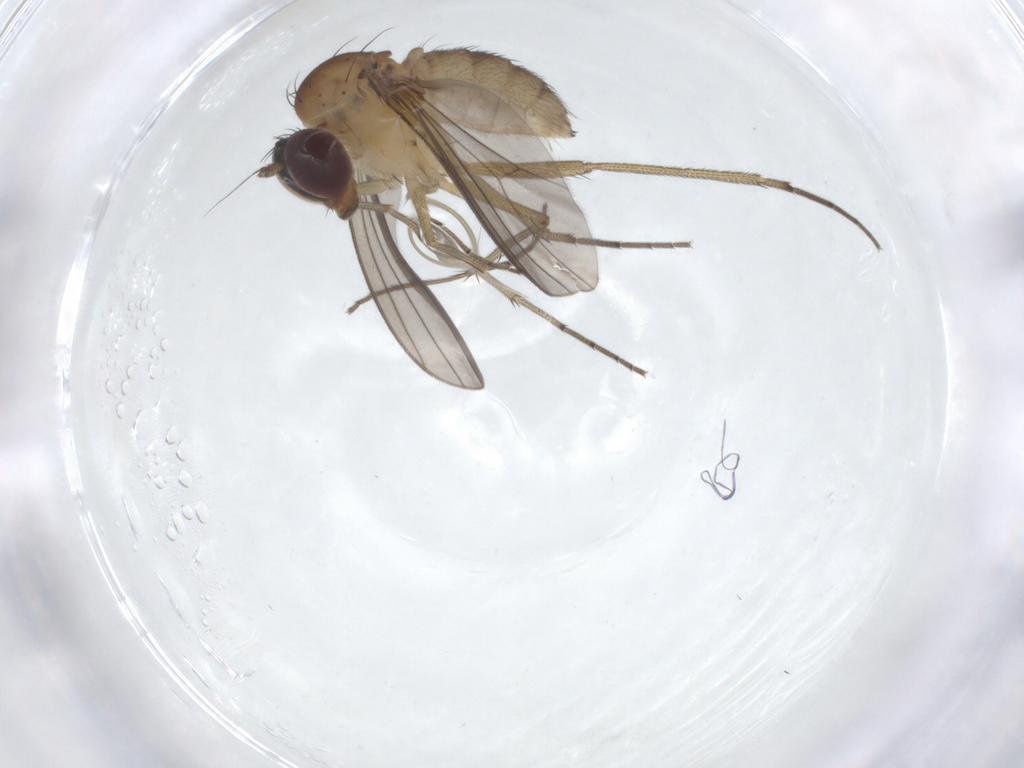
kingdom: Animalia
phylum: Arthropoda
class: Insecta
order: Diptera
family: Dolichopodidae
